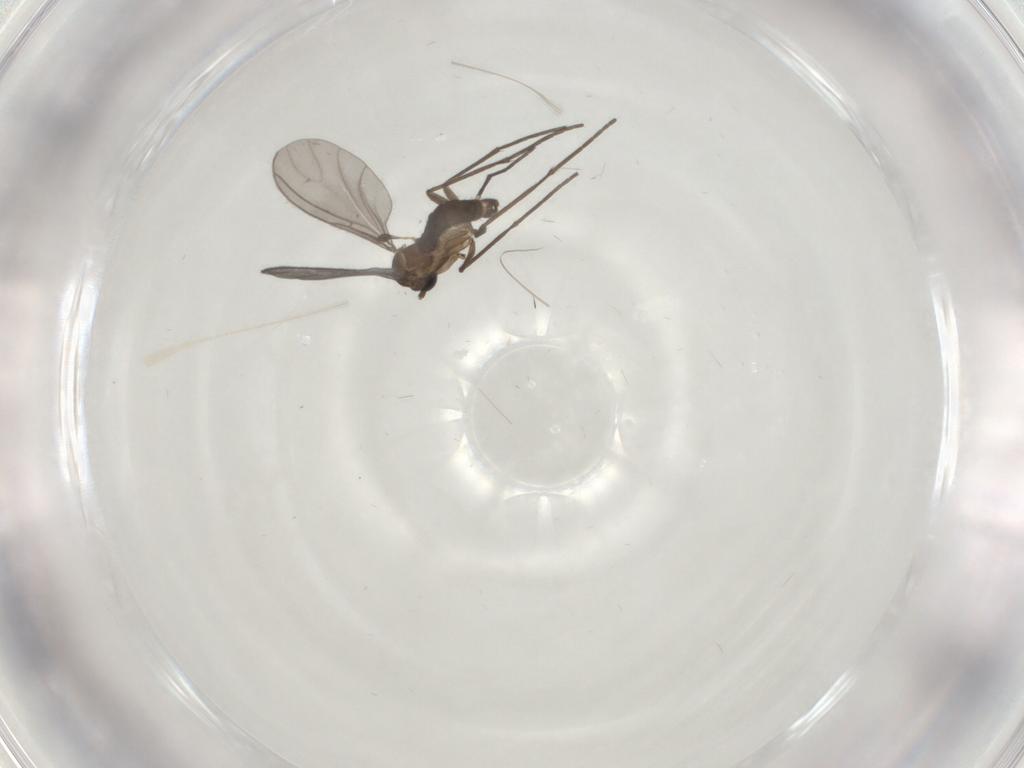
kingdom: Animalia
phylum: Arthropoda
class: Insecta
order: Diptera
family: Sciaridae
